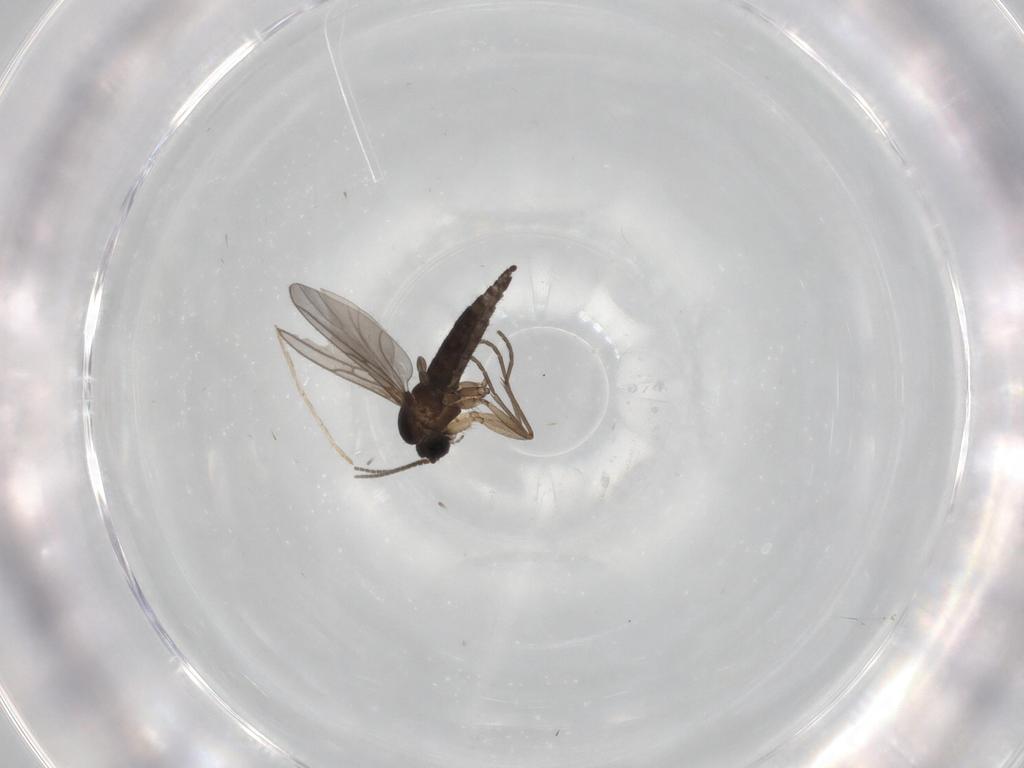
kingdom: Animalia
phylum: Arthropoda
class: Insecta
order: Diptera
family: Sciaridae
